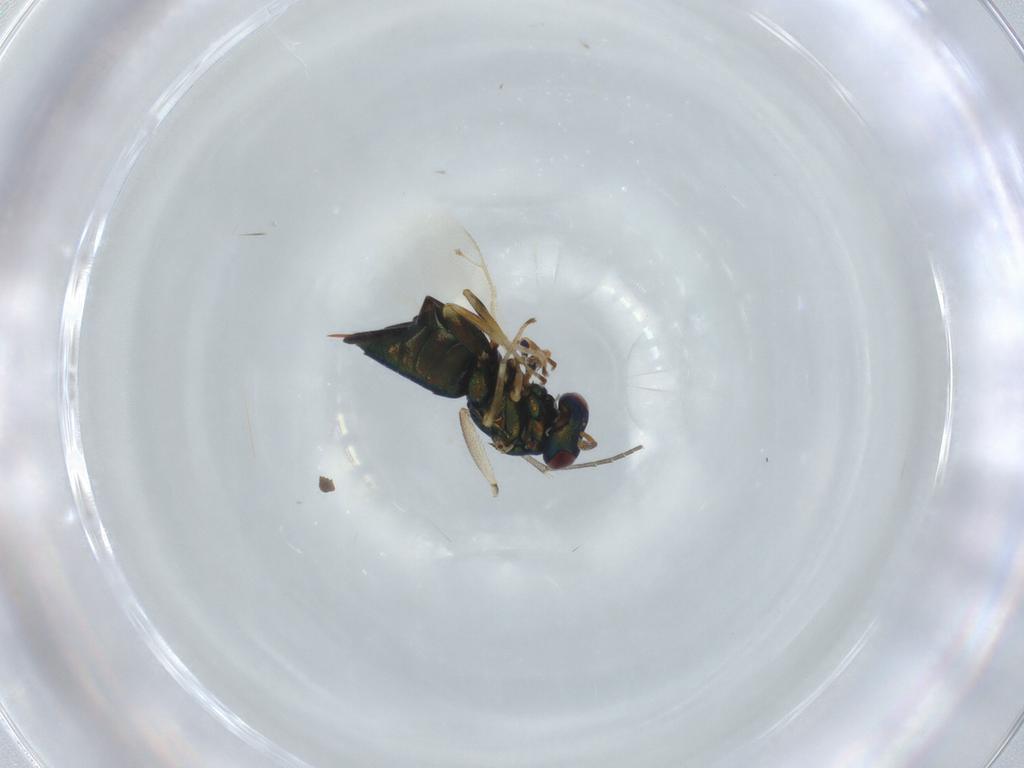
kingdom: Animalia
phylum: Arthropoda
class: Insecta
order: Hymenoptera
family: Pteromalidae
